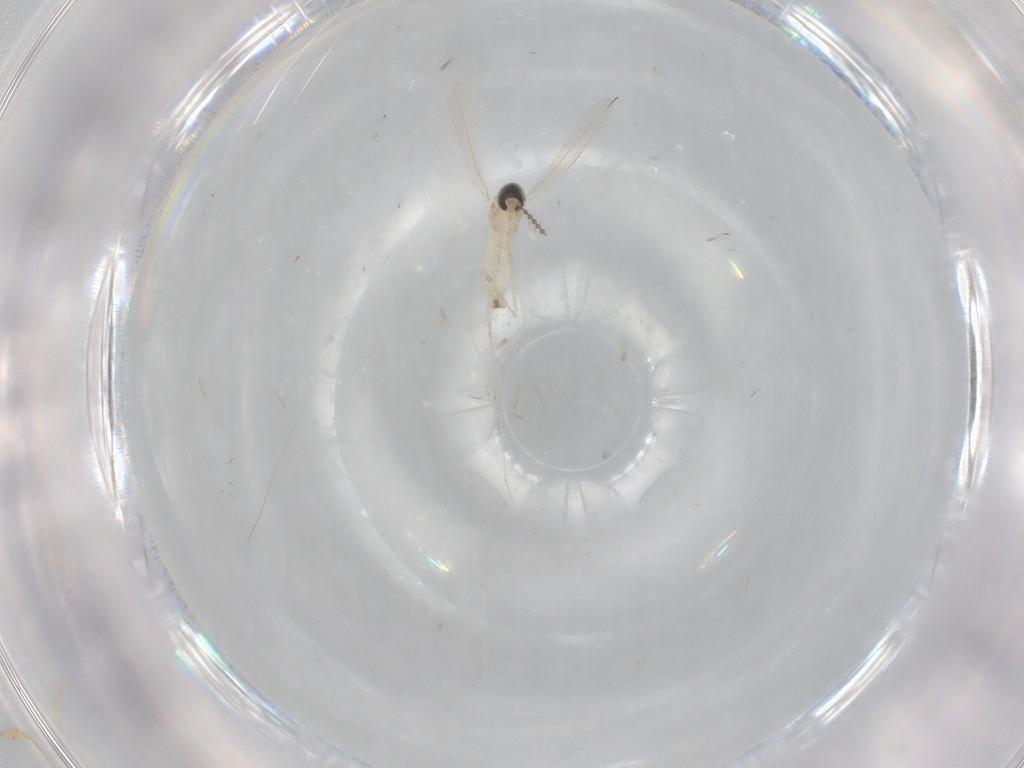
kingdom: Animalia
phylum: Arthropoda
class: Insecta
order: Diptera
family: Cecidomyiidae
